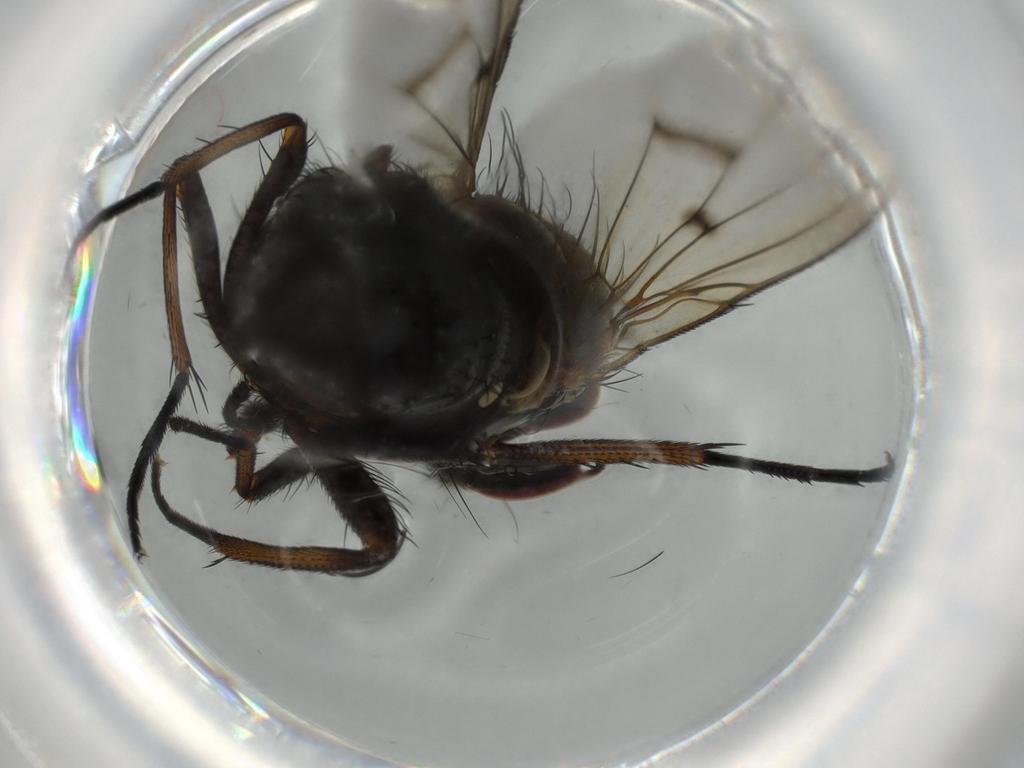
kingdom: Animalia
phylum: Arthropoda
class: Insecta
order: Diptera
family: Muscidae
